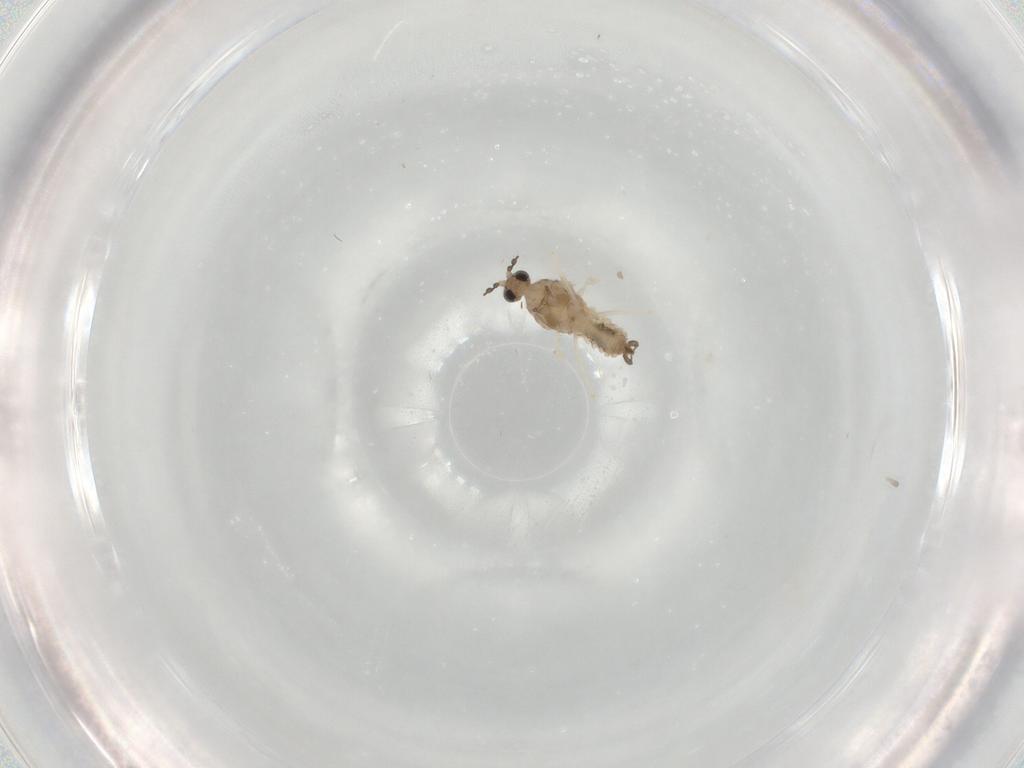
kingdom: Animalia
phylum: Arthropoda
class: Insecta
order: Diptera
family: Cecidomyiidae
